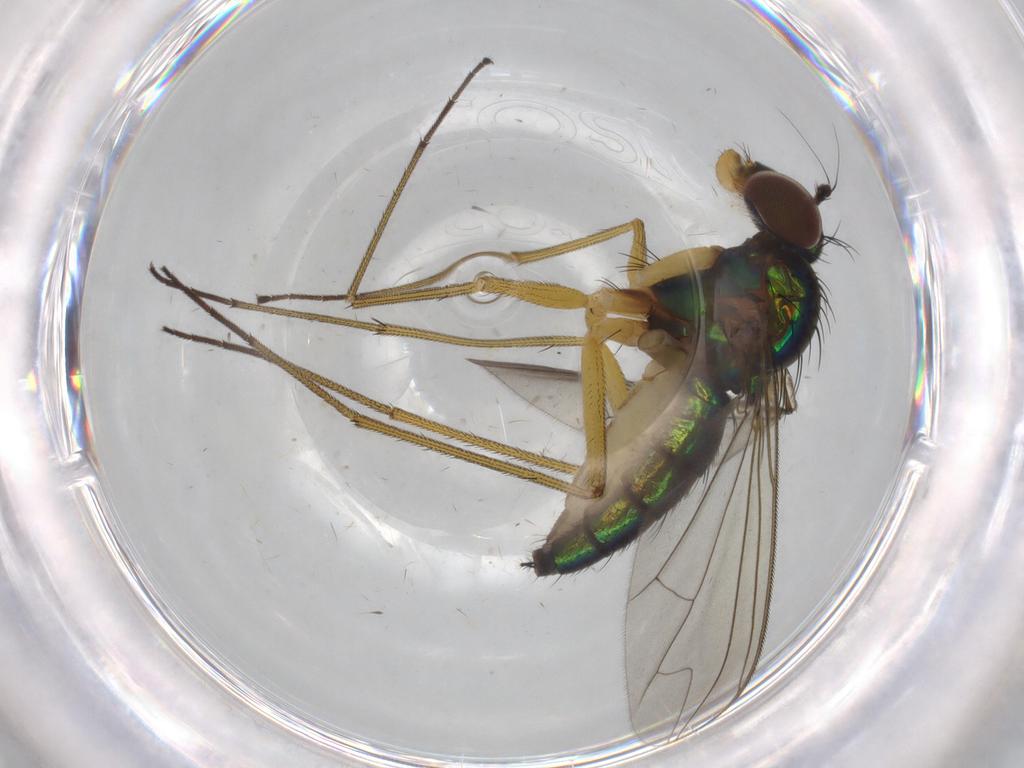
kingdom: Animalia
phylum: Arthropoda
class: Insecta
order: Diptera
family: Dolichopodidae
